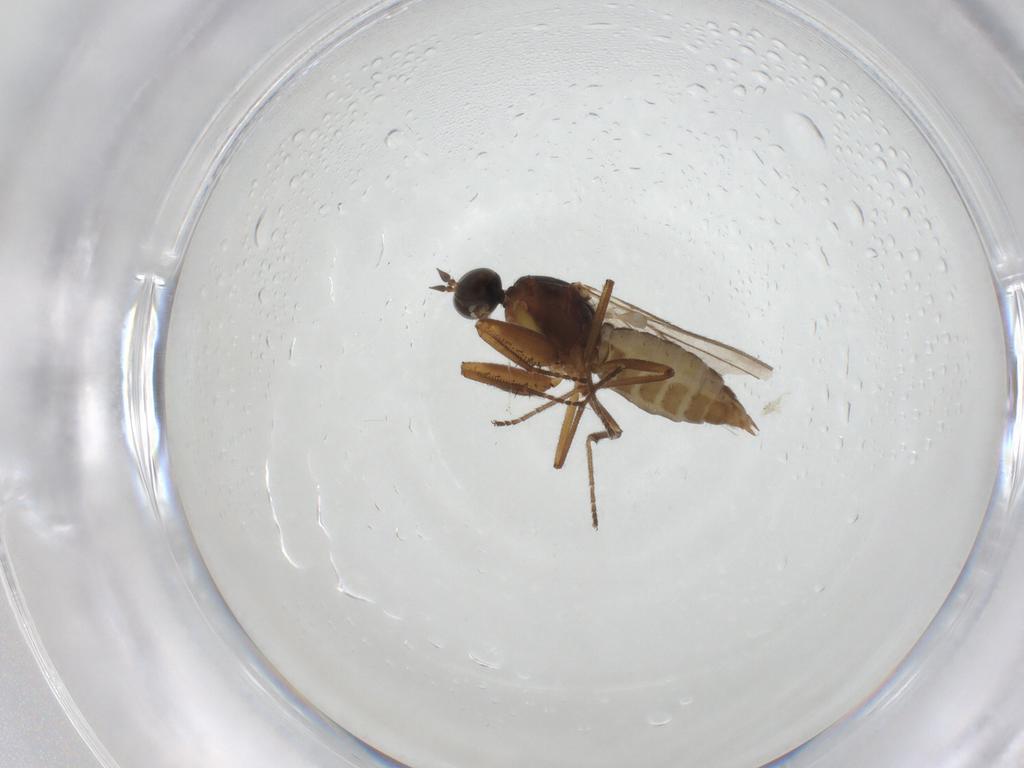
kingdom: Animalia
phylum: Arthropoda
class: Insecta
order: Diptera
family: Empididae
